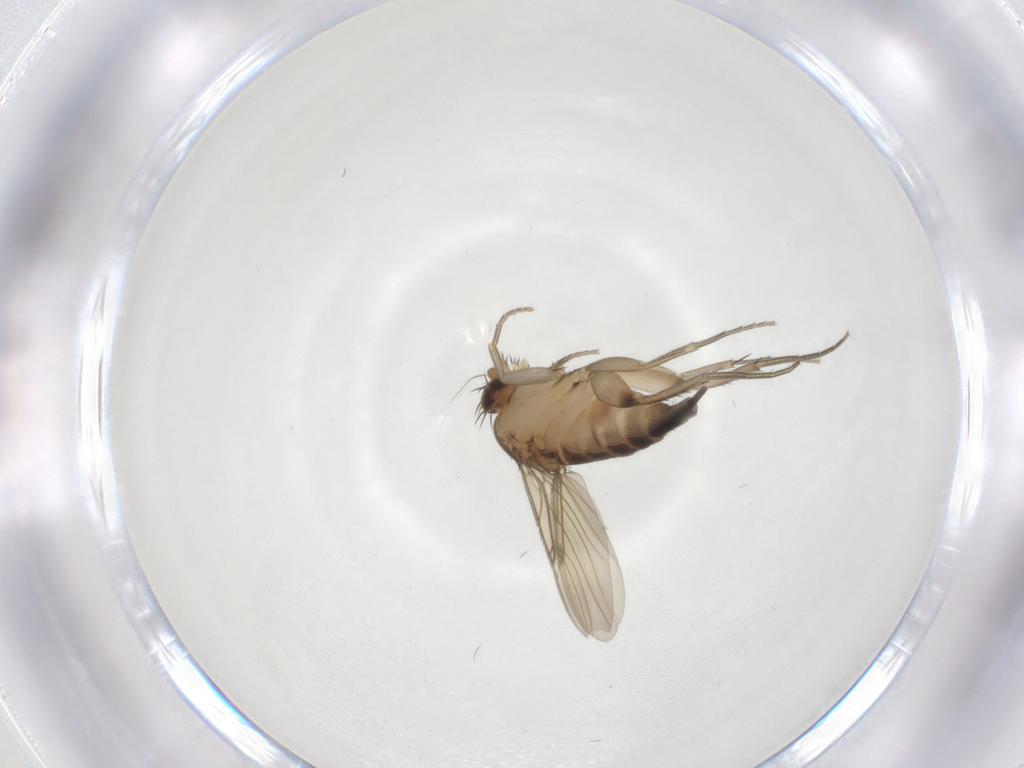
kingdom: Animalia
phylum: Arthropoda
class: Insecta
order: Diptera
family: Phoridae
